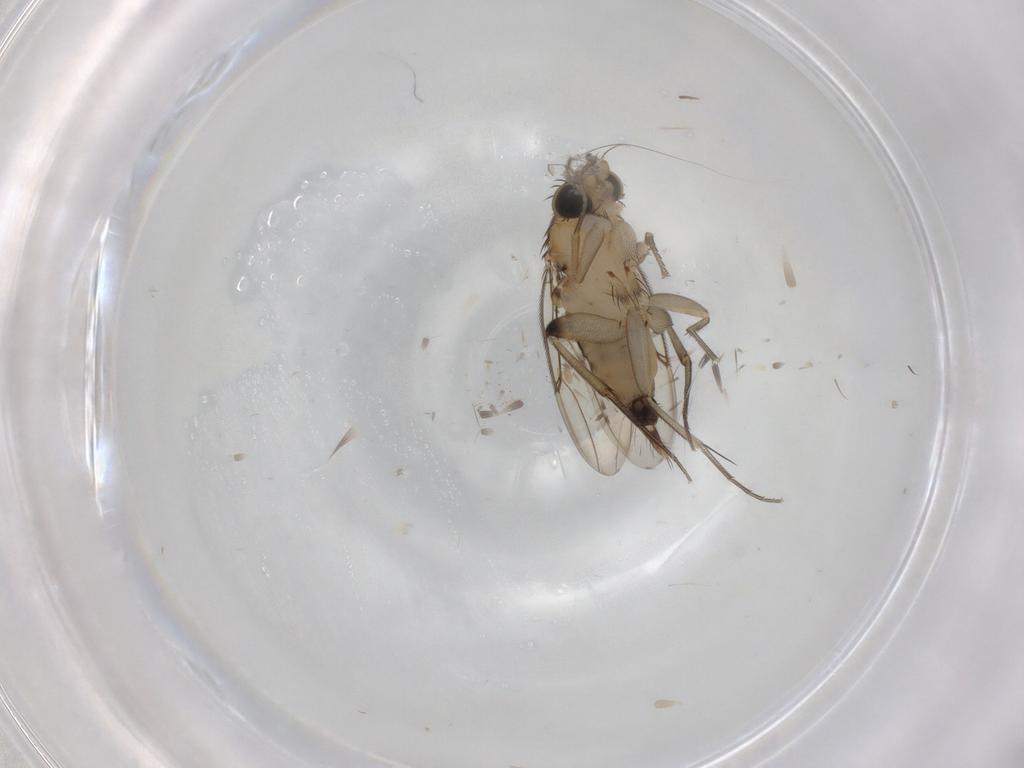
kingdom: Animalia
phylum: Arthropoda
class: Insecta
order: Diptera
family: Phoridae
